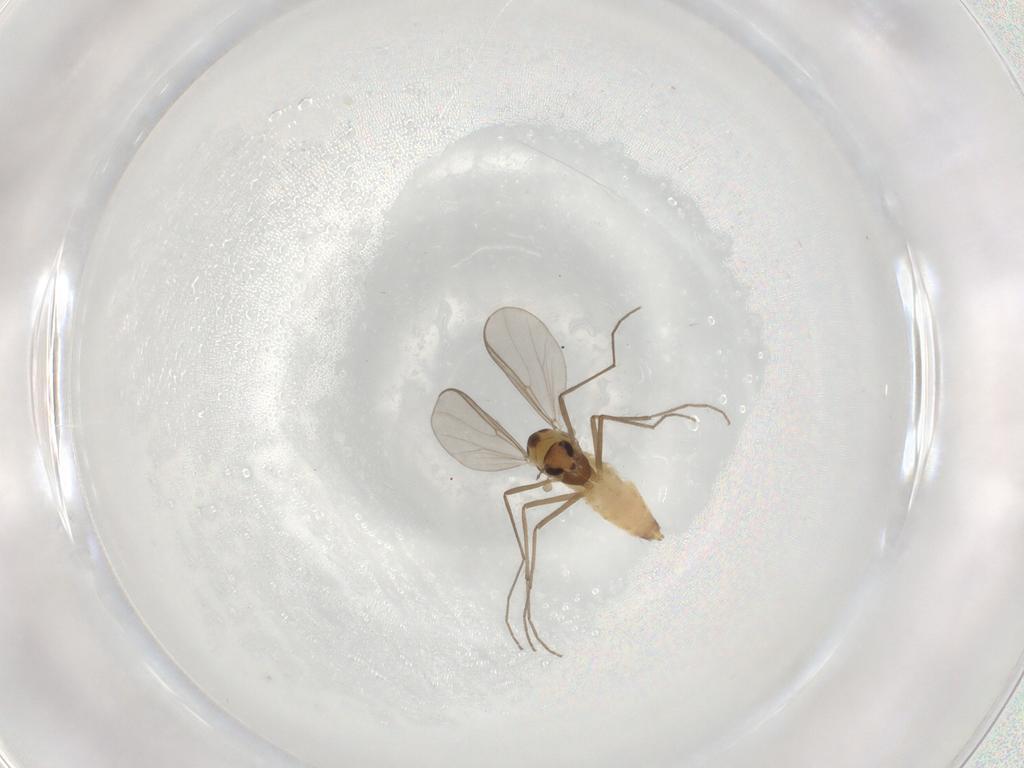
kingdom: Animalia
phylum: Arthropoda
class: Insecta
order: Diptera
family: Chironomidae
